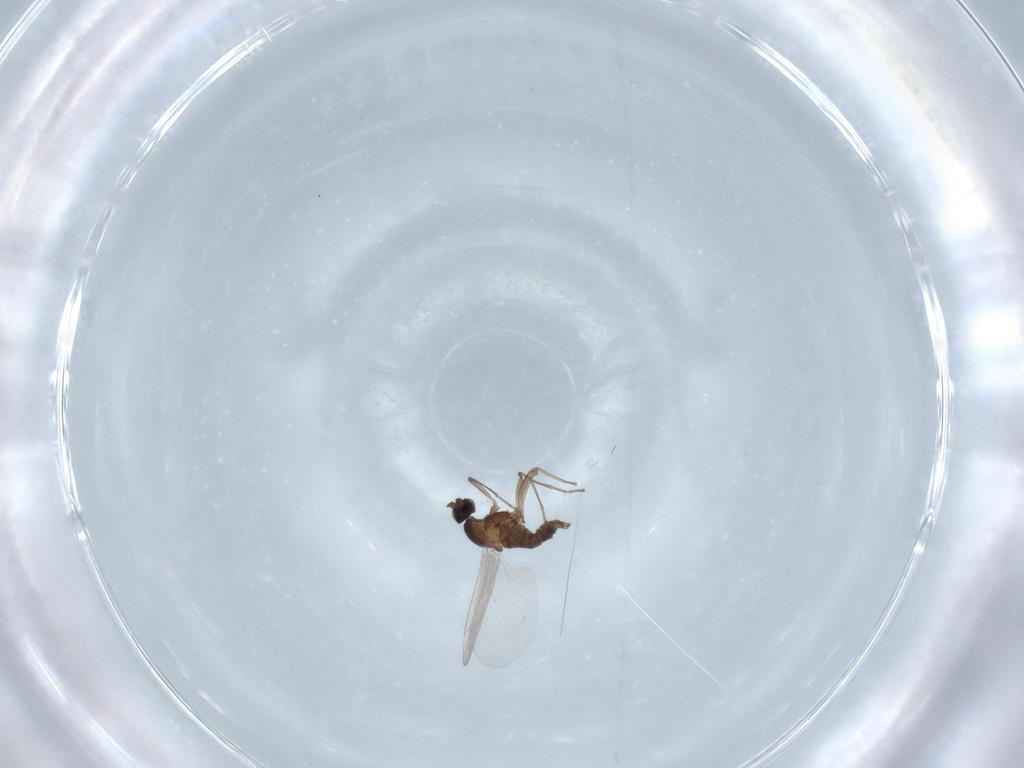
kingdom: Animalia
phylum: Arthropoda
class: Insecta
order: Diptera
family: Cecidomyiidae
